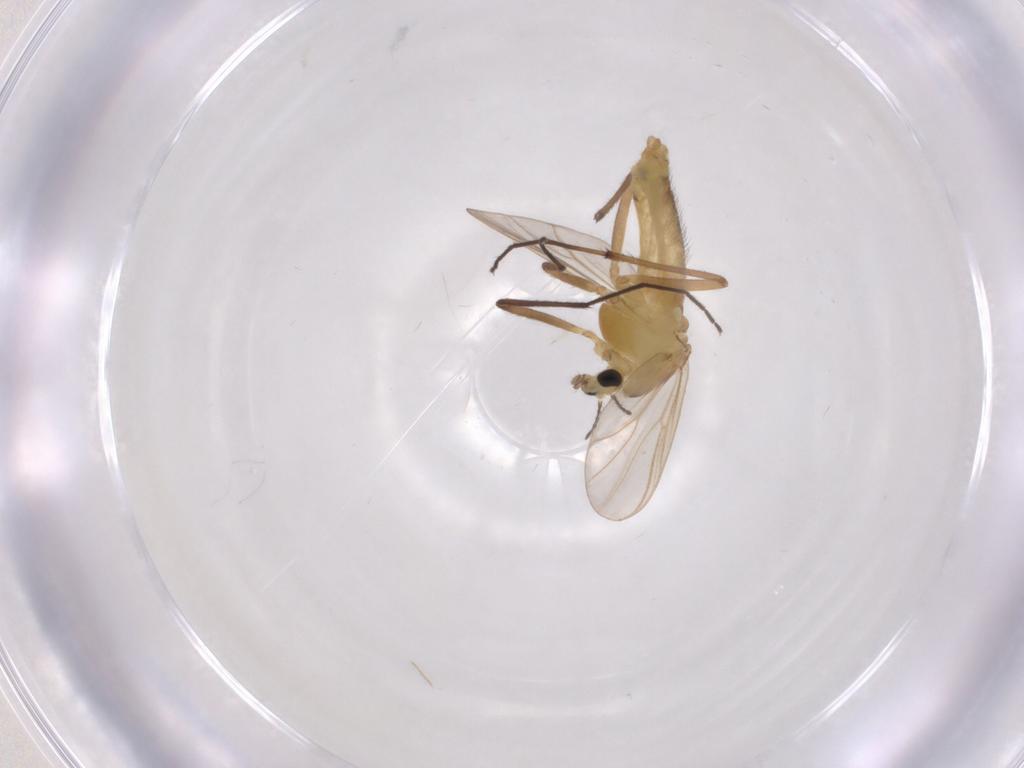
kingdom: Animalia
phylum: Arthropoda
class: Insecta
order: Diptera
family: Chironomidae
